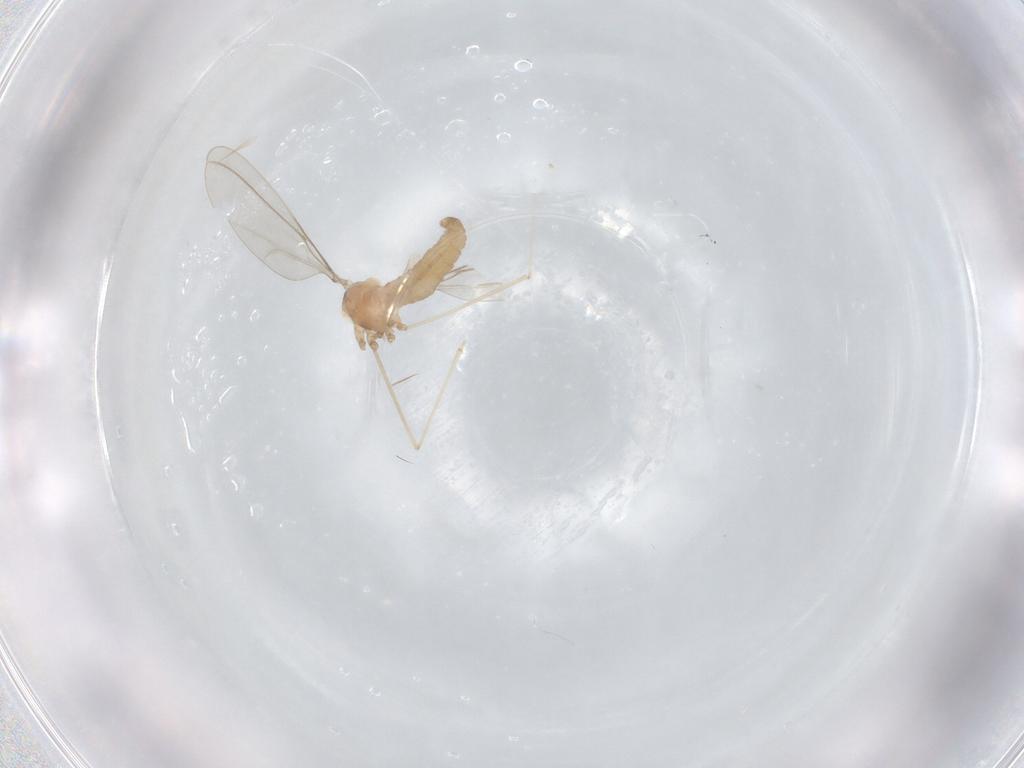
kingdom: Animalia
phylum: Arthropoda
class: Insecta
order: Diptera
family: Cecidomyiidae
